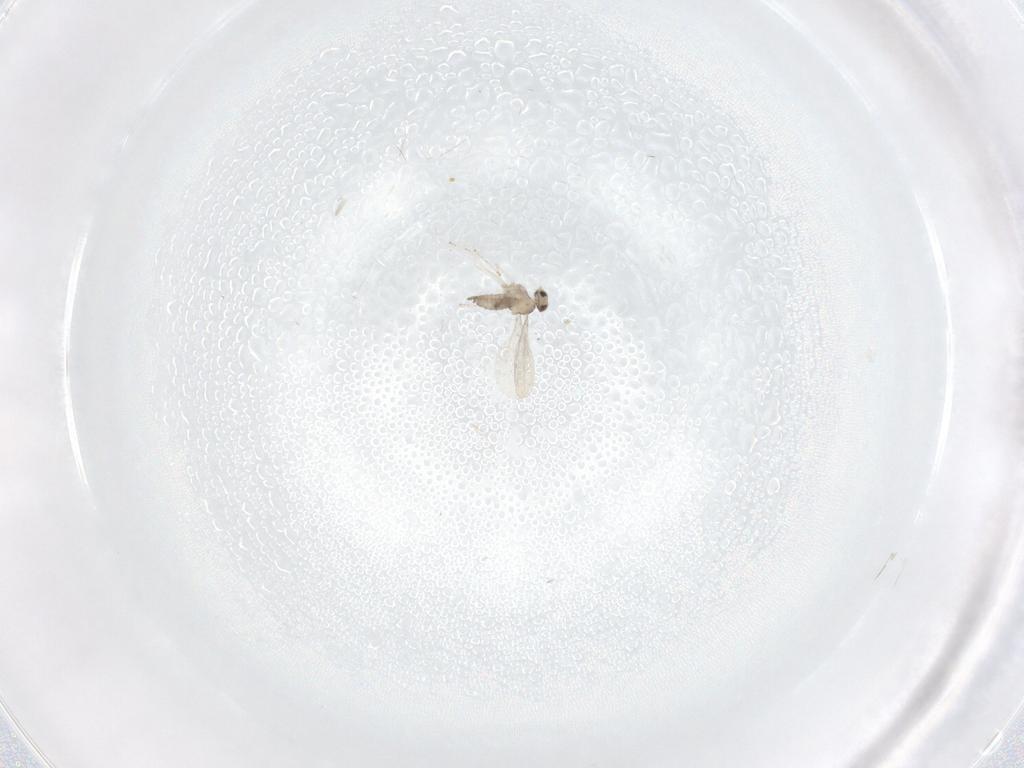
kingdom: Animalia
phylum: Arthropoda
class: Insecta
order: Diptera
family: Cecidomyiidae
